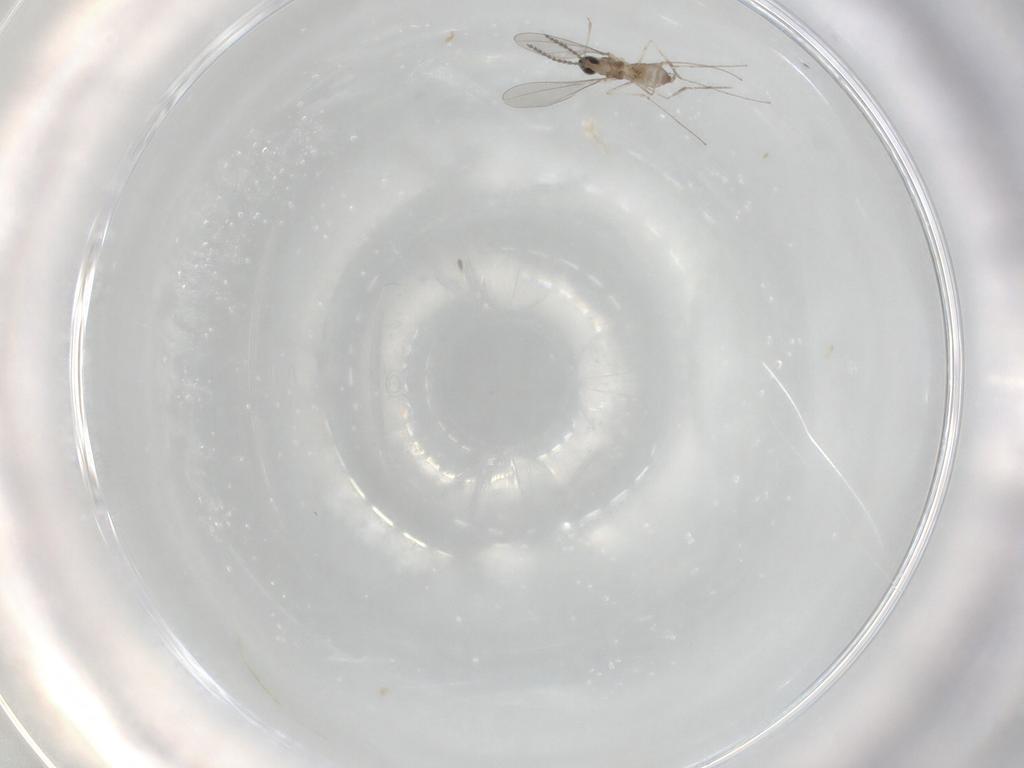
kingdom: Animalia
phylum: Arthropoda
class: Insecta
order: Diptera
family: Cecidomyiidae
